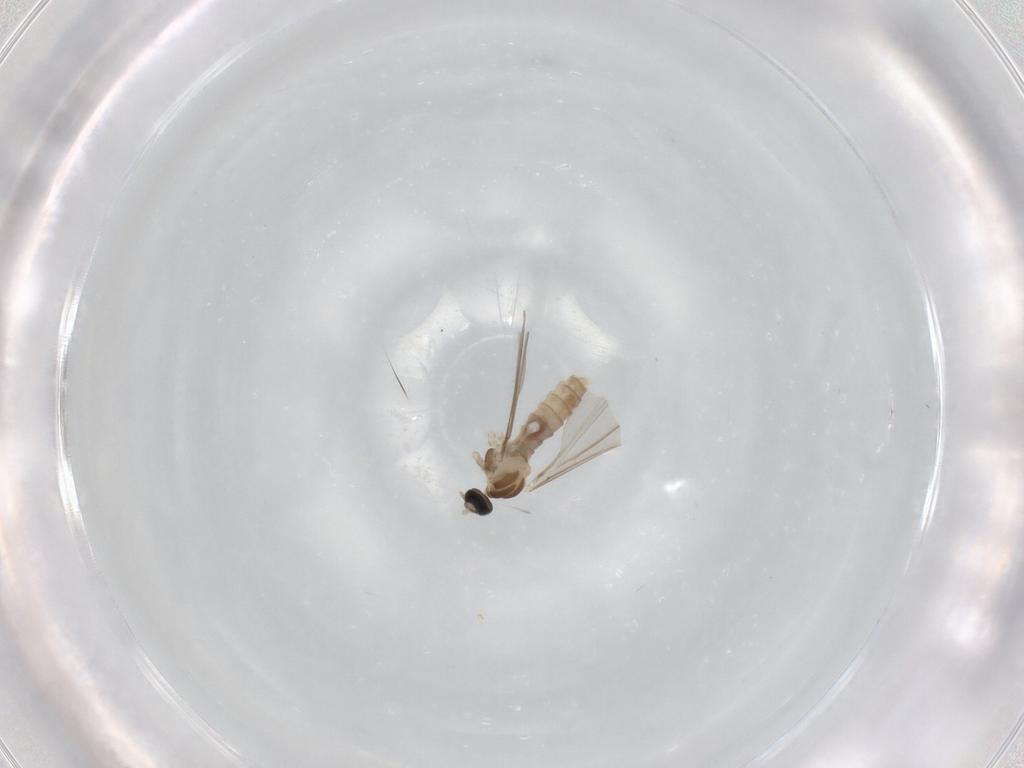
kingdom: Animalia
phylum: Arthropoda
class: Insecta
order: Diptera
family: Cecidomyiidae
